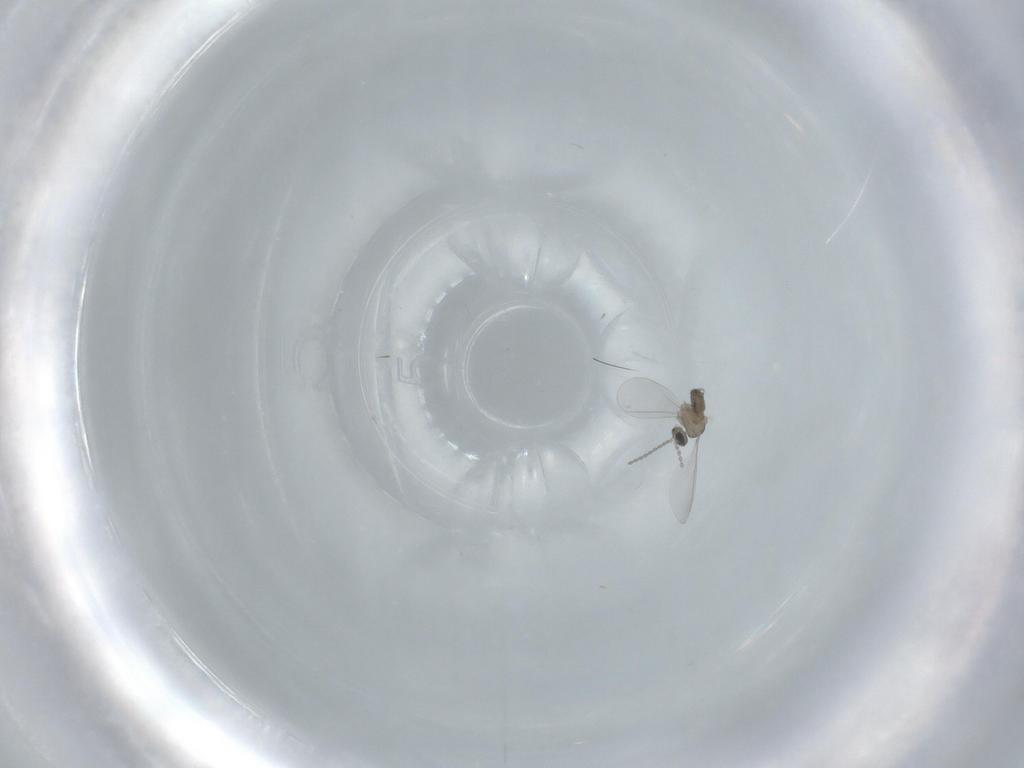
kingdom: Animalia
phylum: Arthropoda
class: Insecta
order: Diptera
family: Cecidomyiidae
